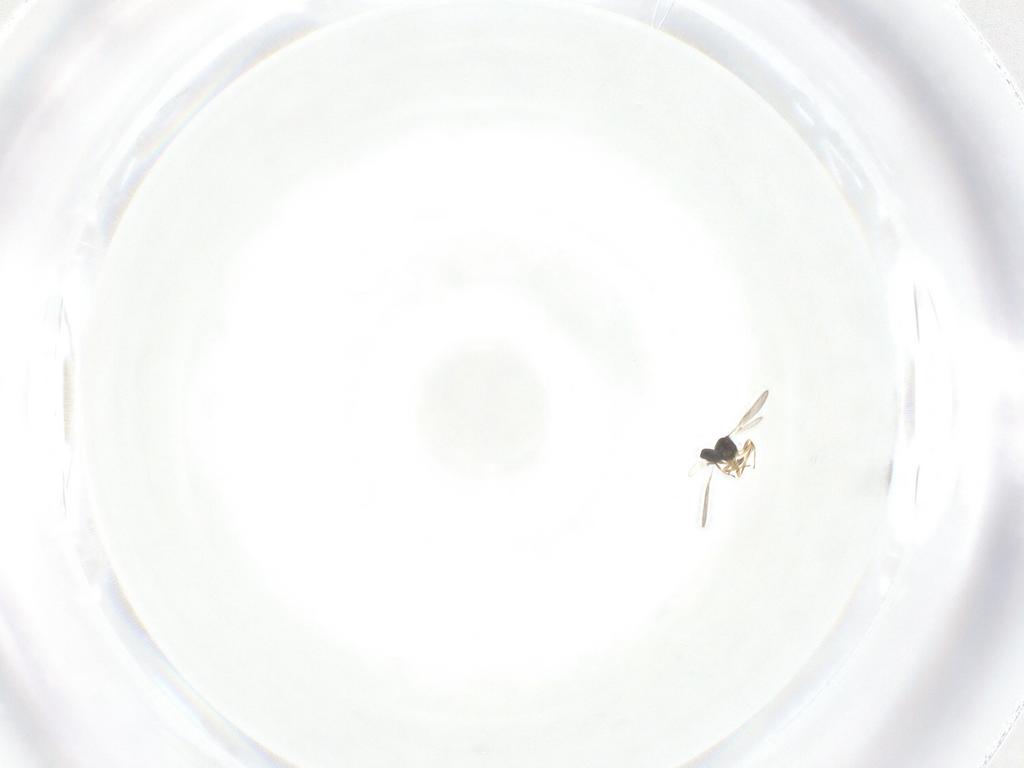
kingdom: Animalia
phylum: Arthropoda
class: Insecta
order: Hymenoptera
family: Scelionidae
